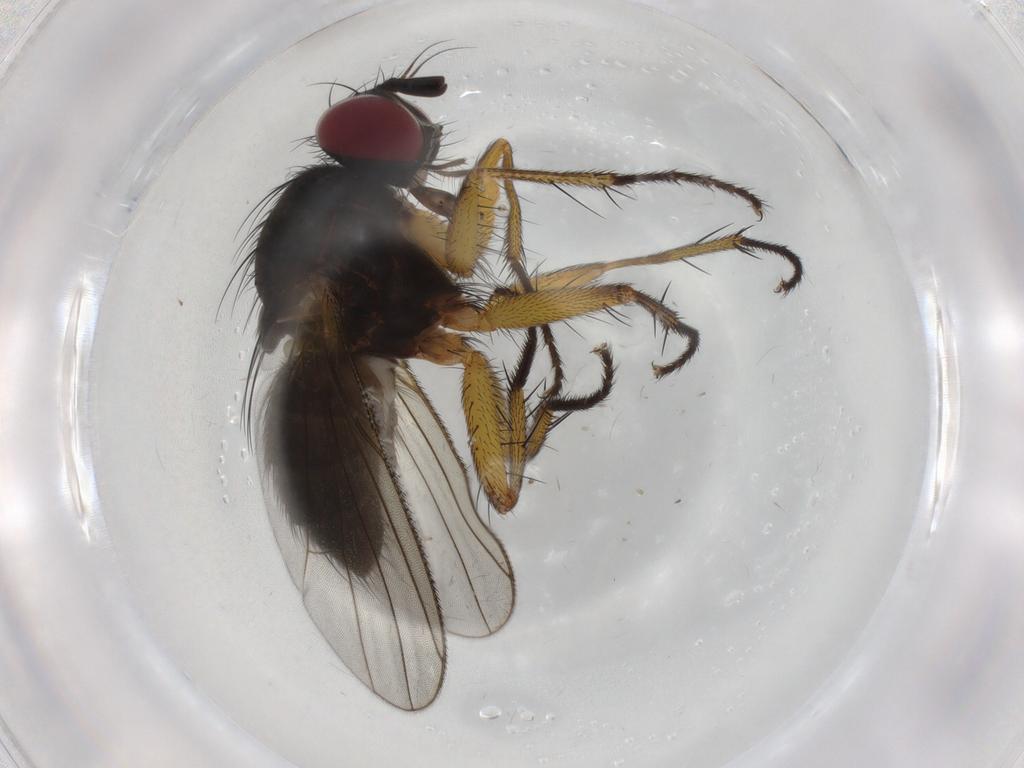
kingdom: Animalia
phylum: Arthropoda
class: Insecta
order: Diptera
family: Muscidae
